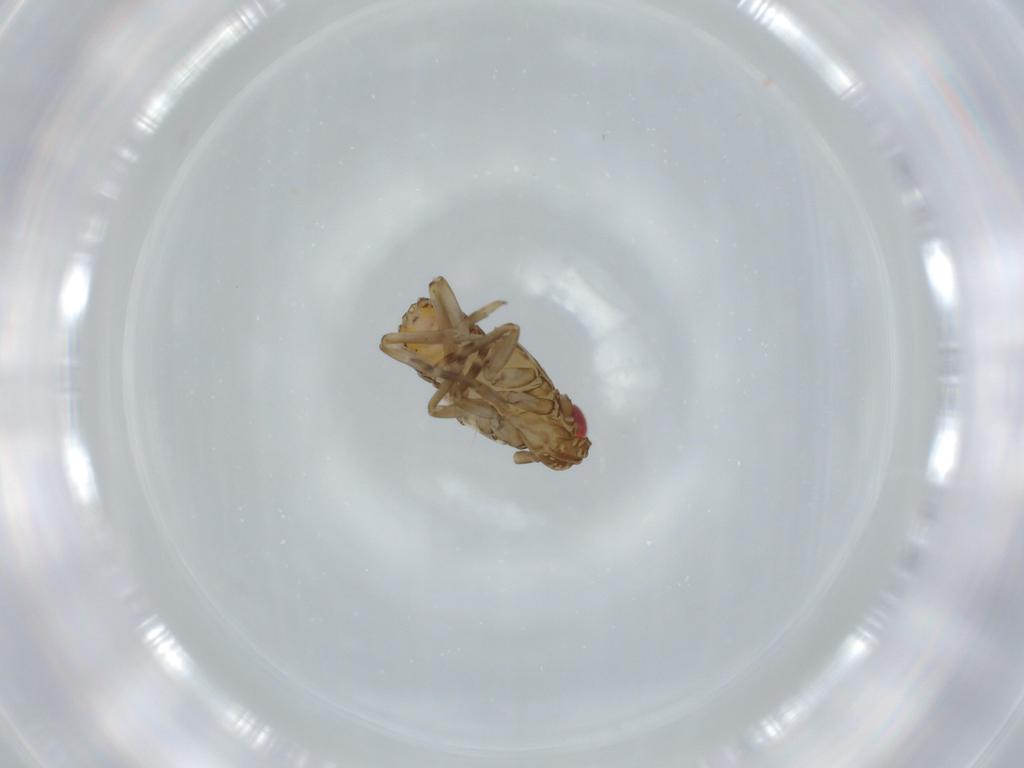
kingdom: Animalia
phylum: Arthropoda
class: Insecta
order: Hemiptera
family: Delphacidae
